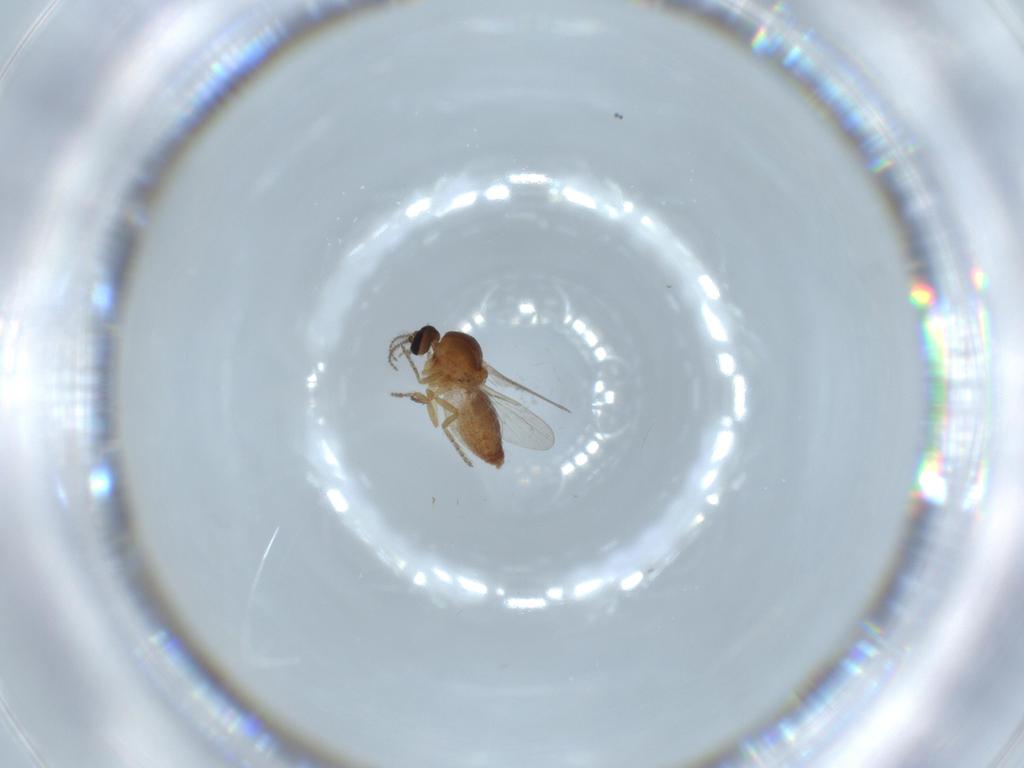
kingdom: Animalia
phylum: Arthropoda
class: Insecta
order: Diptera
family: Ceratopogonidae
